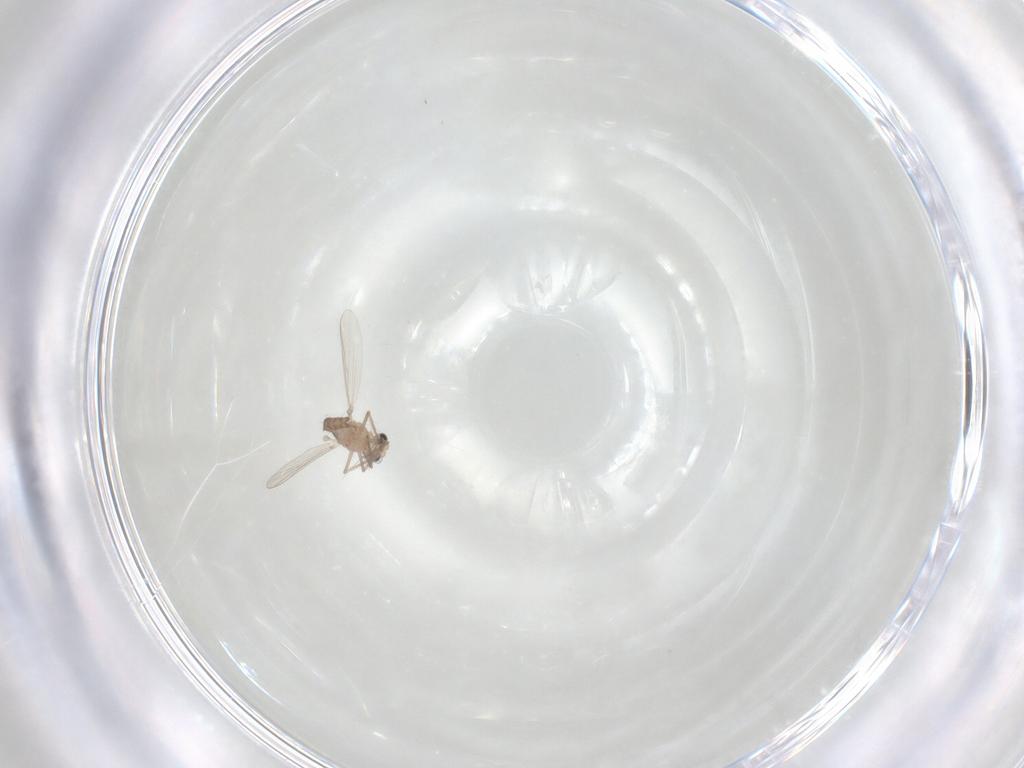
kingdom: Animalia
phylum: Arthropoda
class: Insecta
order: Diptera
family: Chironomidae
